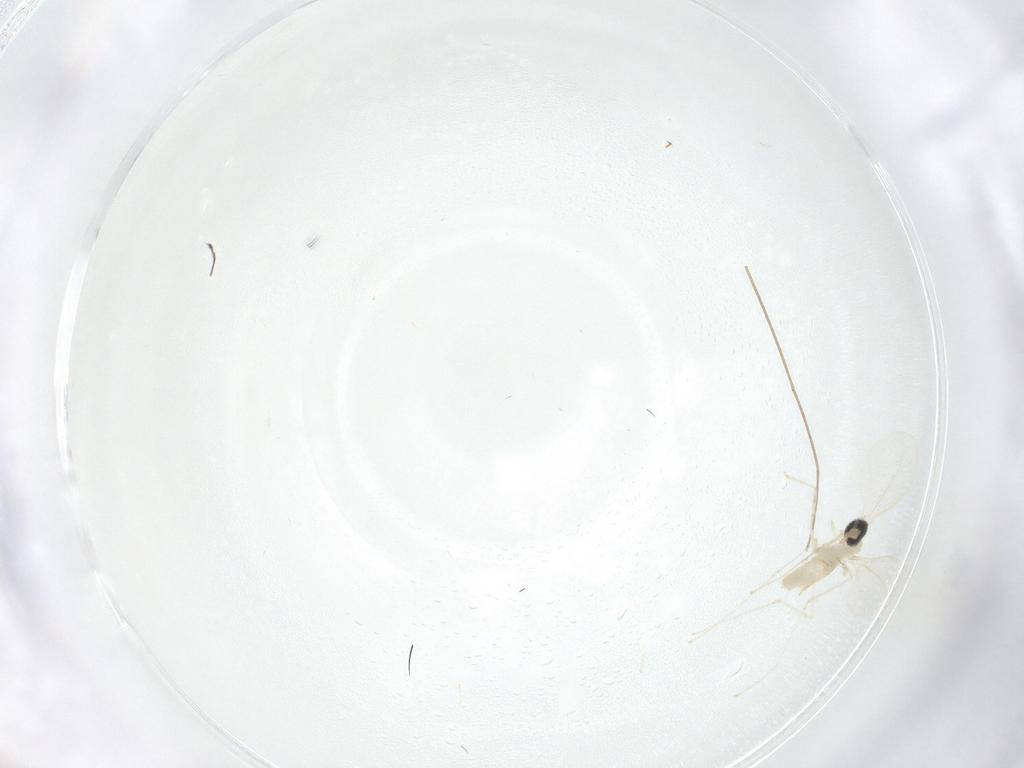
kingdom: Animalia
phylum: Arthropoda
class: Insecta
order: Diptera
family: Cecidomyiidae
